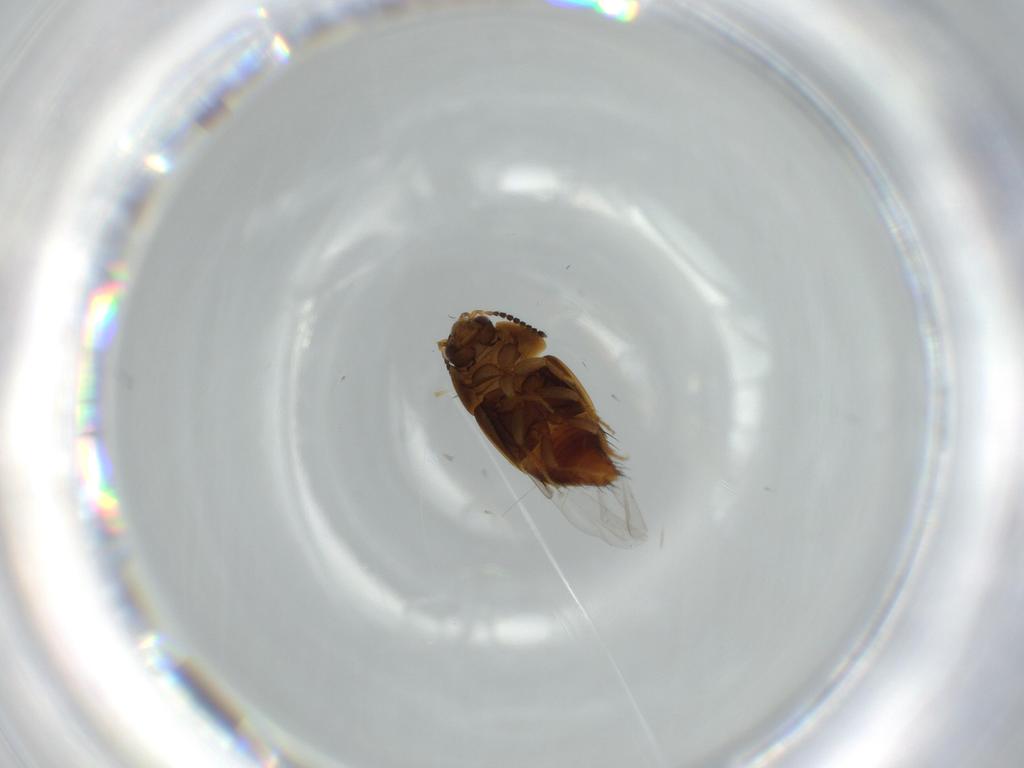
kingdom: Animalia
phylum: Arthropoda
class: Insecta
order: Coleoptera
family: Staphylinidae
